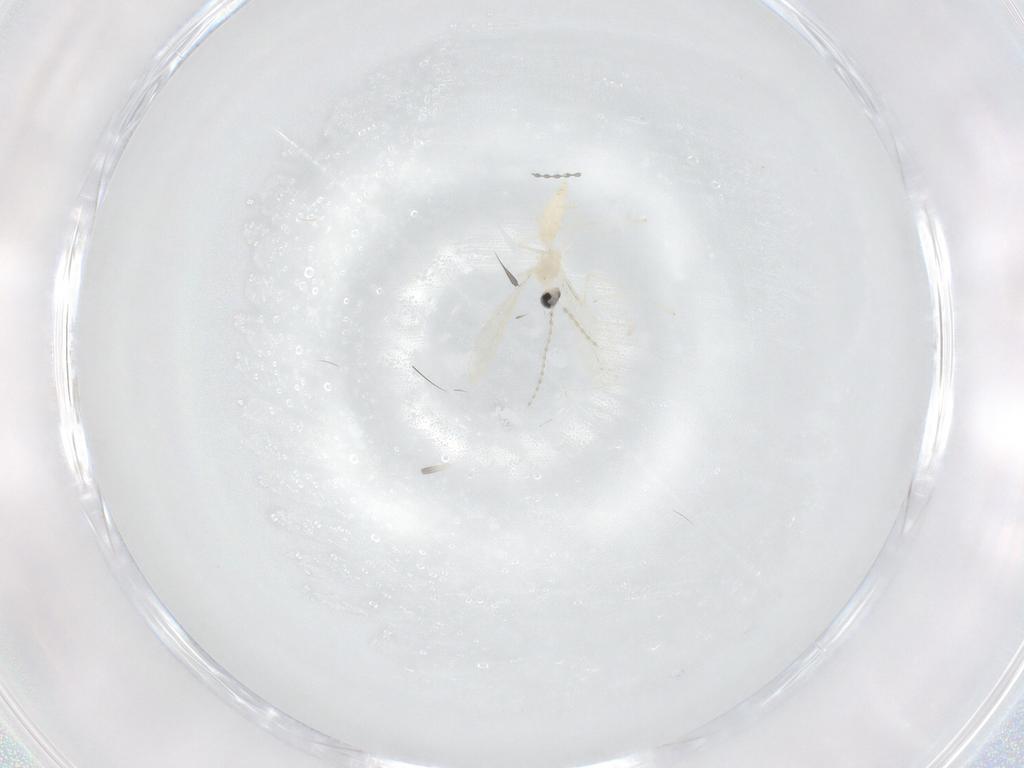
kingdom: Animalia
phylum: Arthropoda
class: Insecta
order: Diptera
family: Cecidomyiidae
